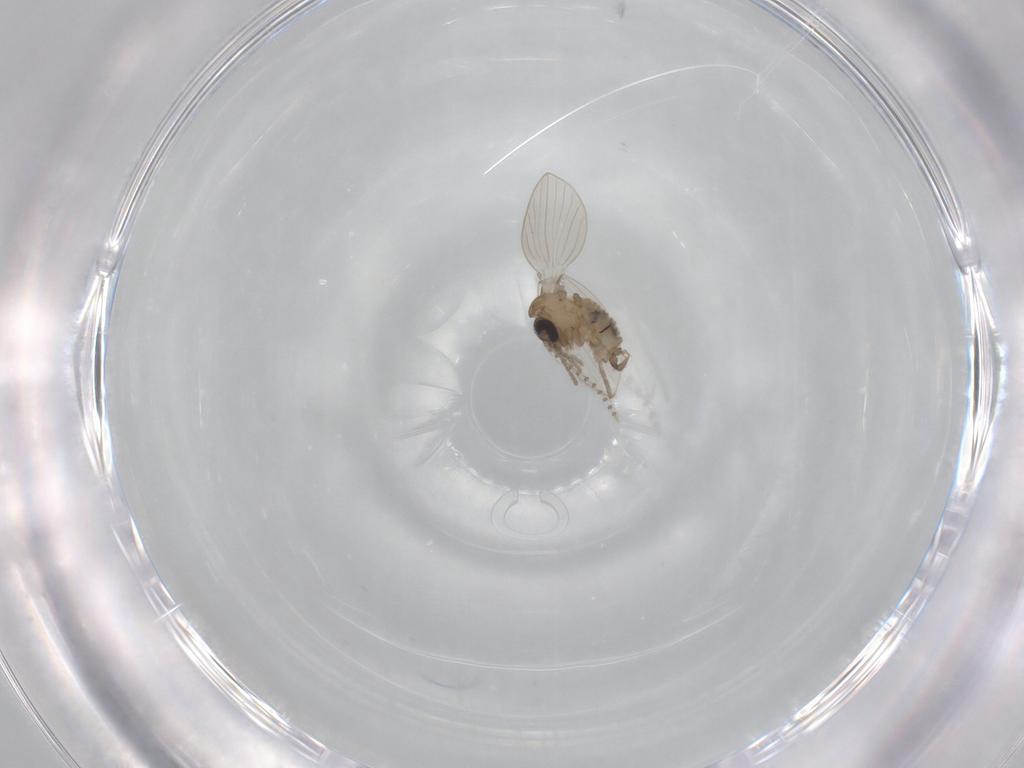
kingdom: Animalia
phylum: Arthropoda
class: Insecta
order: Diptera
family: Psychodidae
